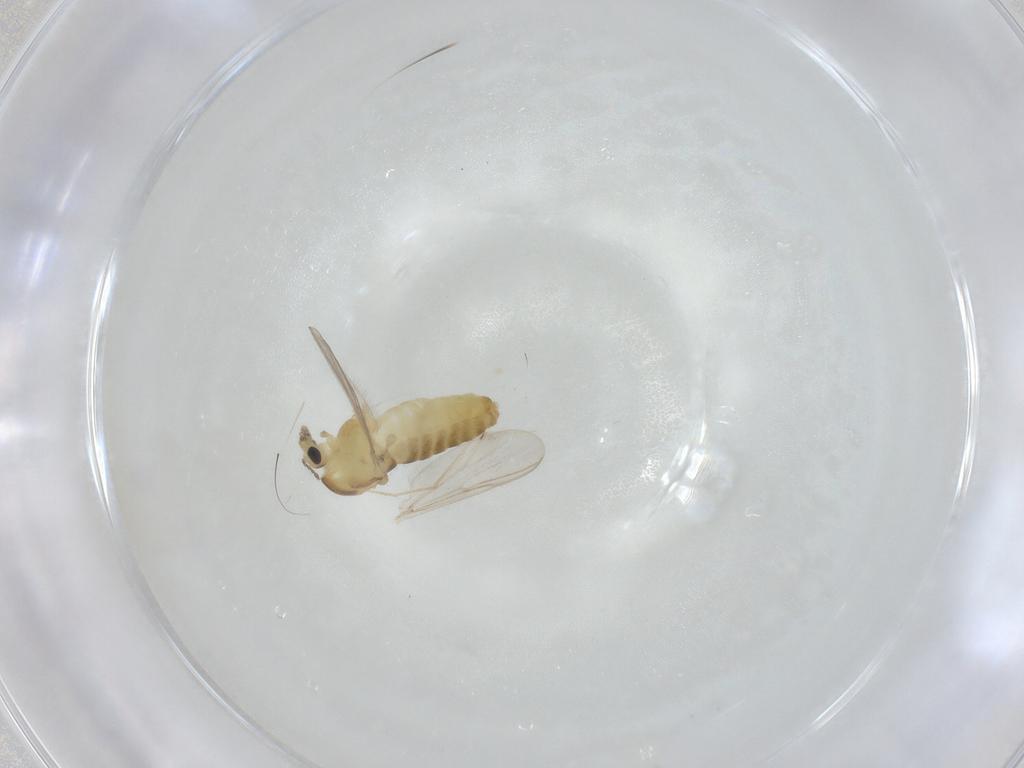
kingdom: Animalia
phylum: Arthropoda
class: Insecta
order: Diptera
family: Chironomidae
